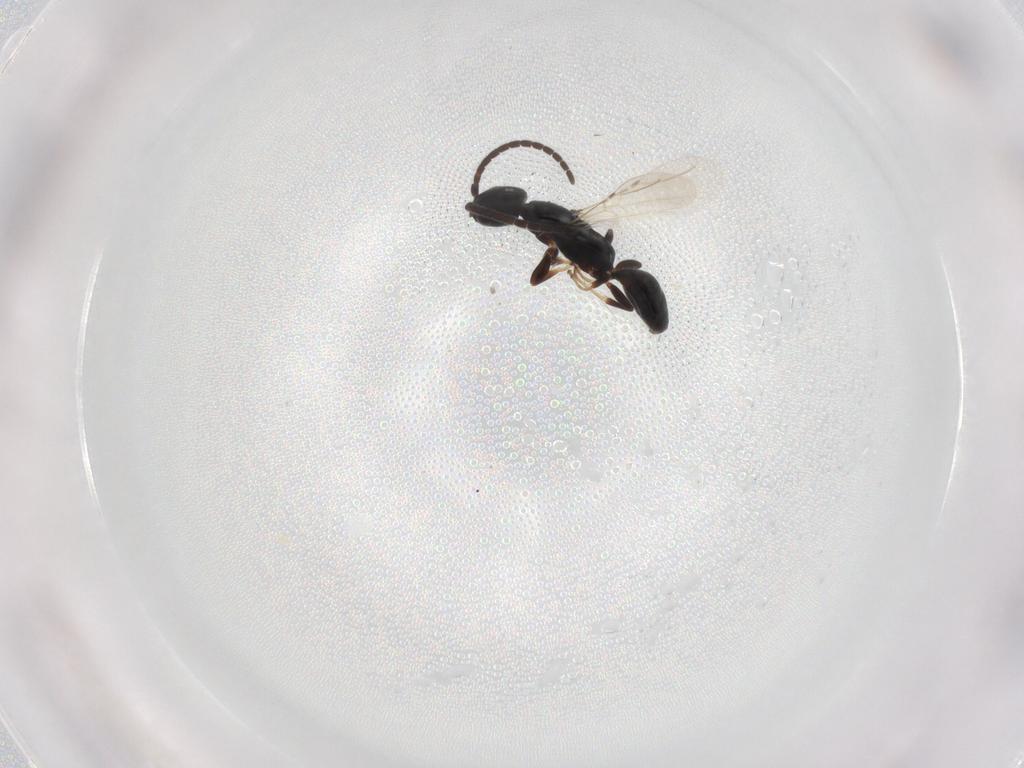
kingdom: Animalia
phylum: Arthropoda
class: Insecta
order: Hymenoptera
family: Bethylidae
